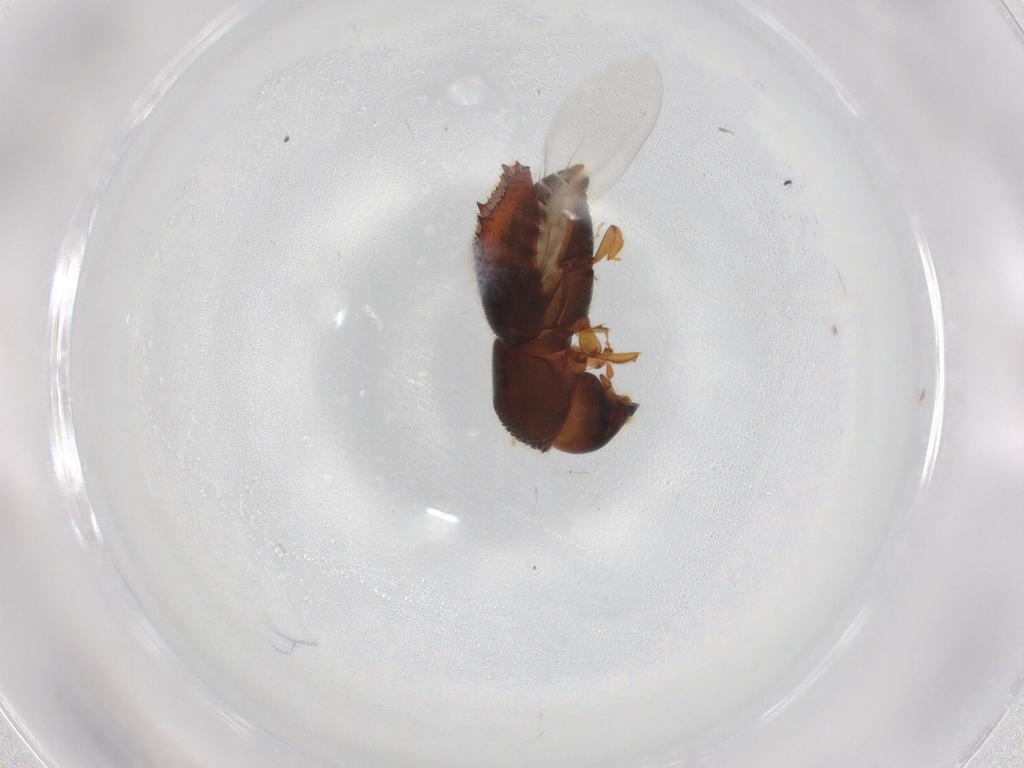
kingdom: Animalia
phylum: Arthropoda
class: Insecta
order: Coleoptera
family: Curculionidae
